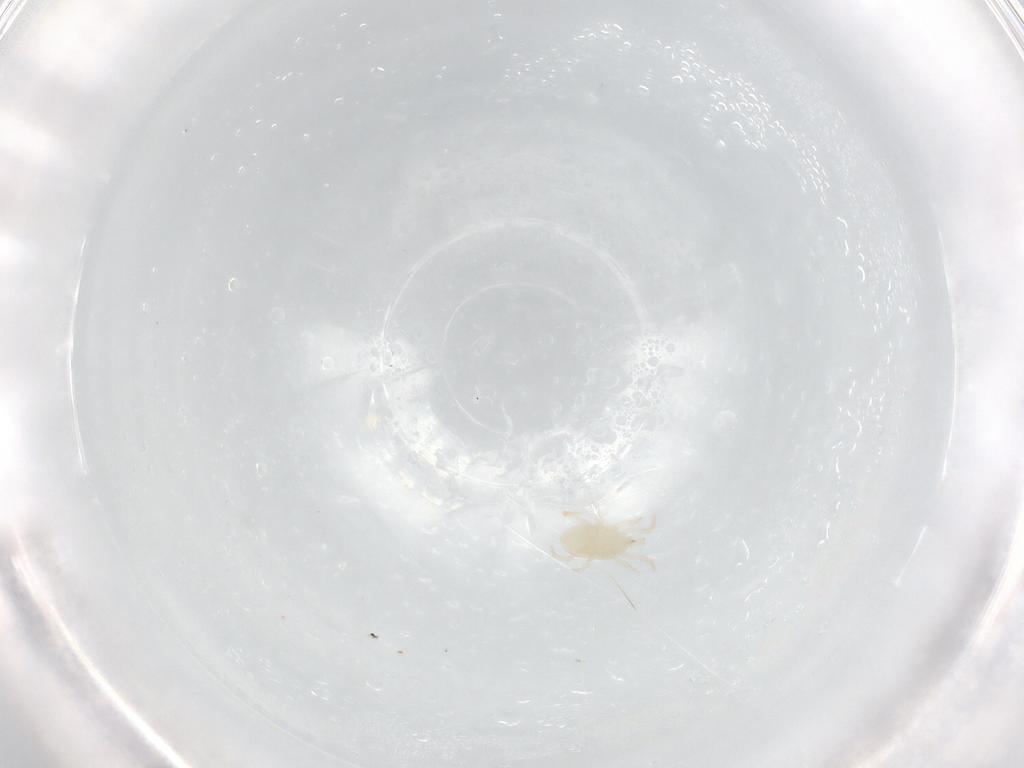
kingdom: Animalia
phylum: Arthropoda
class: Arachnida
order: Mesostigmata
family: Melicharidae
